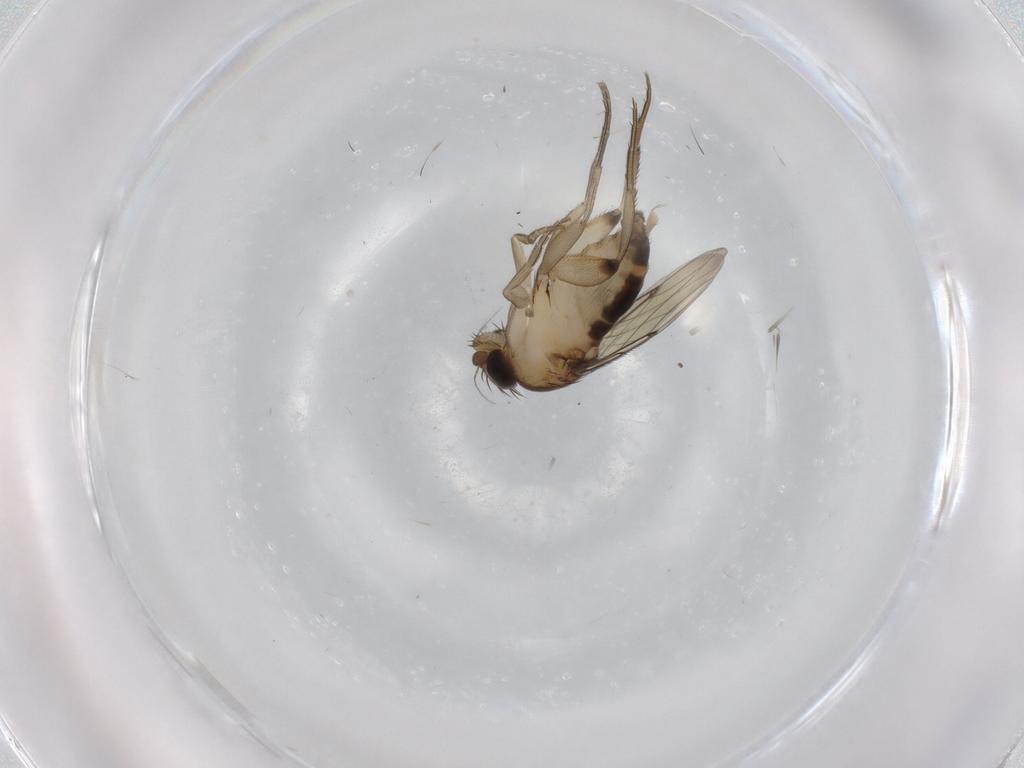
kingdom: Animalia
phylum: Arthropoda
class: Insecta
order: Diptera
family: Phoridae
